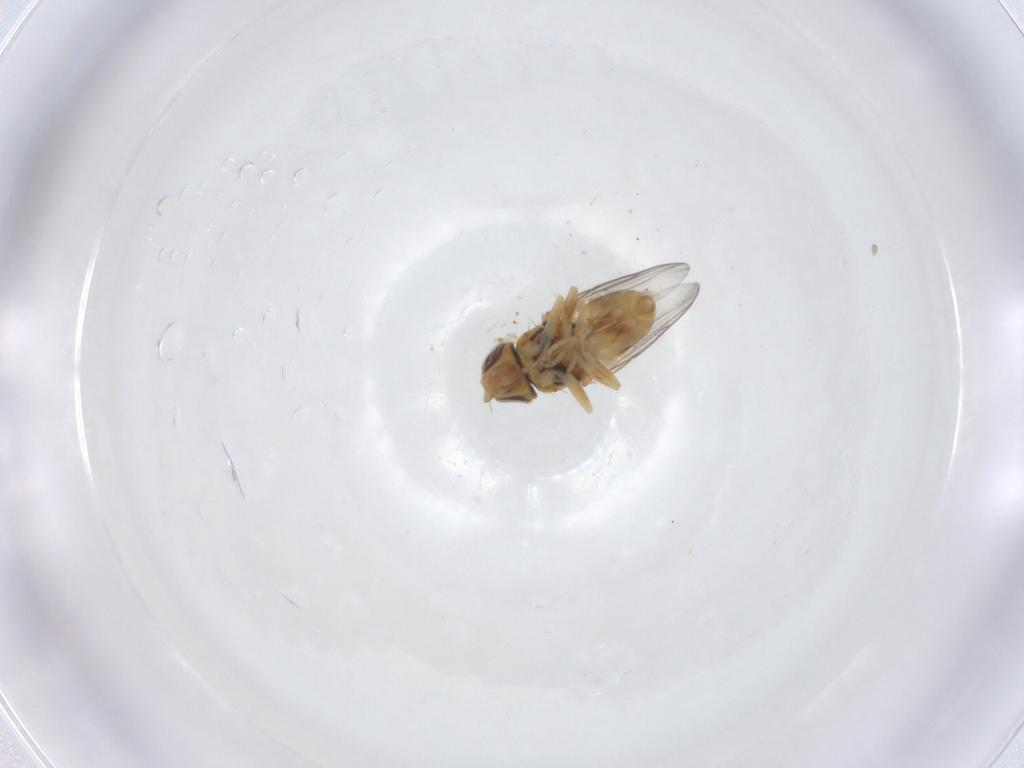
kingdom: Animalia
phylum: Arthropoda
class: Insecta
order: Diptera
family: Chloropidae
